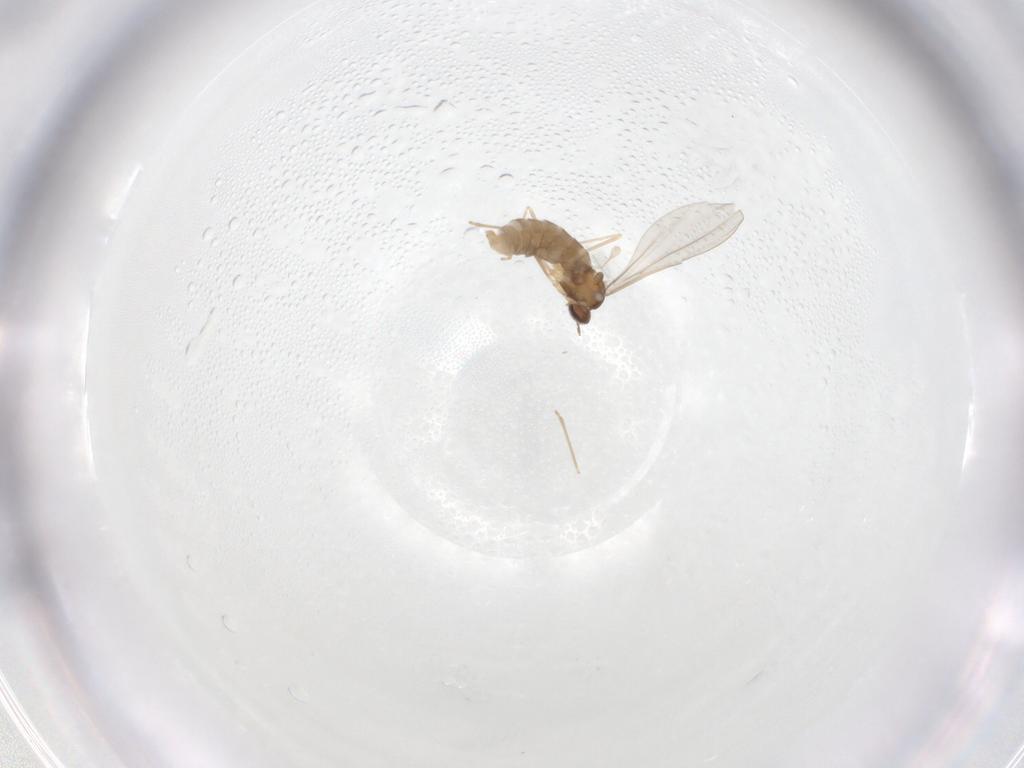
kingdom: Animalia
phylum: Arthropoda
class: Insecta
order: Diptera
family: Cecidomyiidae
